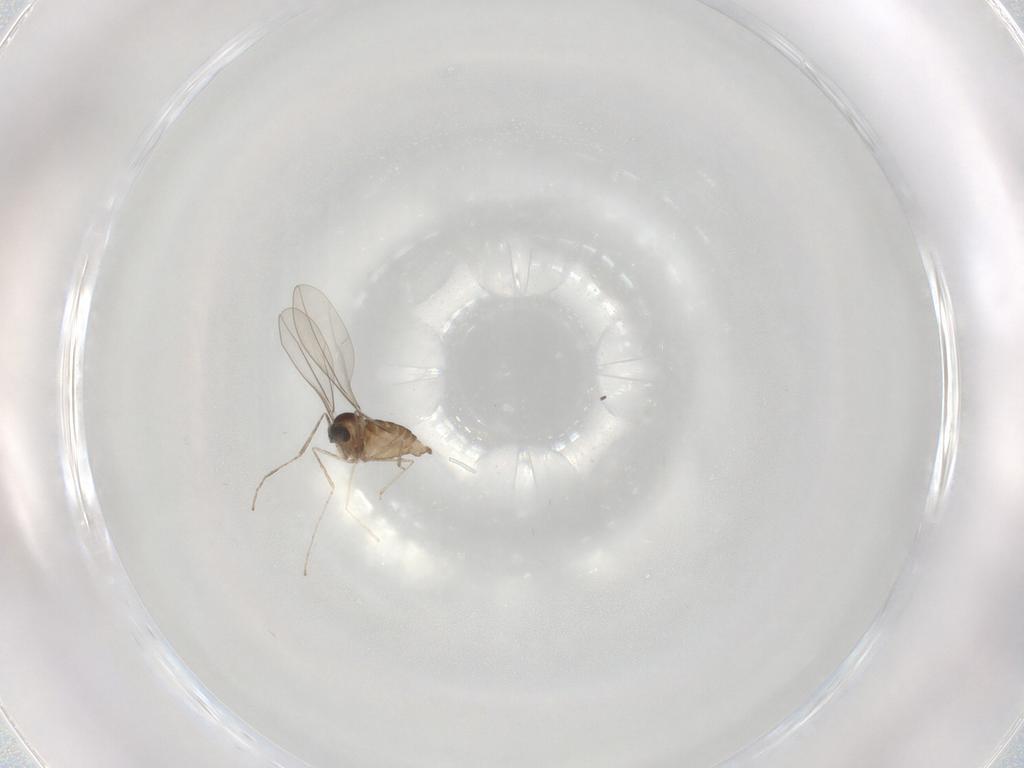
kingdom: Animalia
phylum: Arthropoda
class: Insecta
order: Diptera
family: Cecidomyiidae
